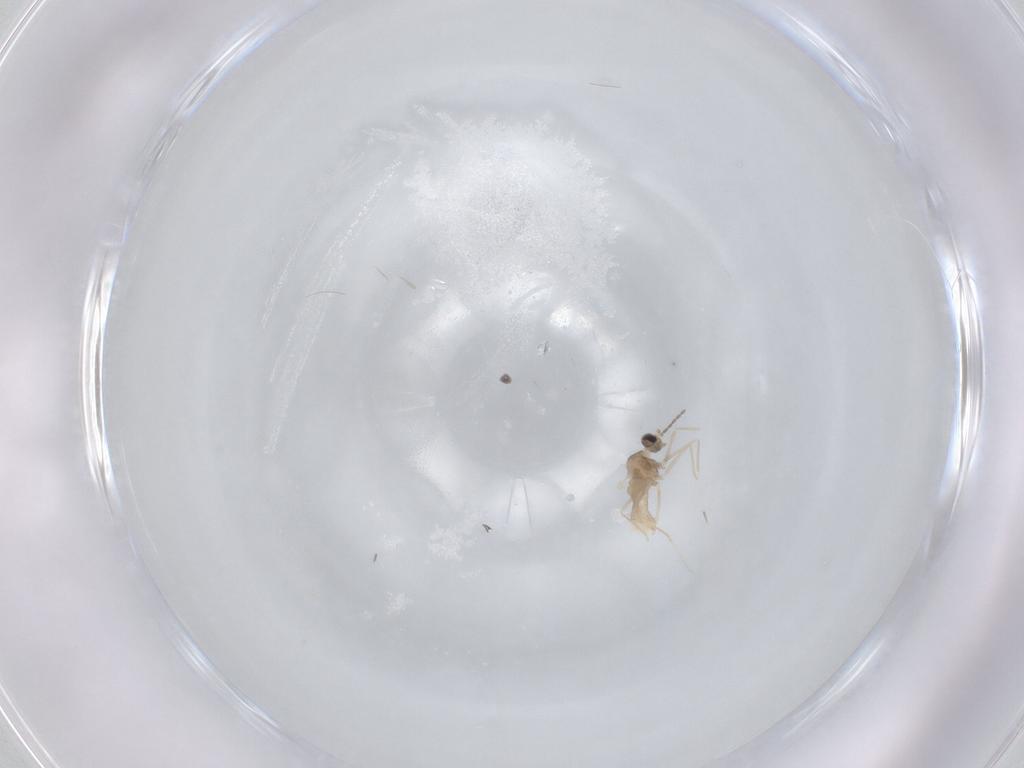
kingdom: Animalia
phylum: Arthropoda
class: Insecta
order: Diptera
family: Cecidomyiidae
